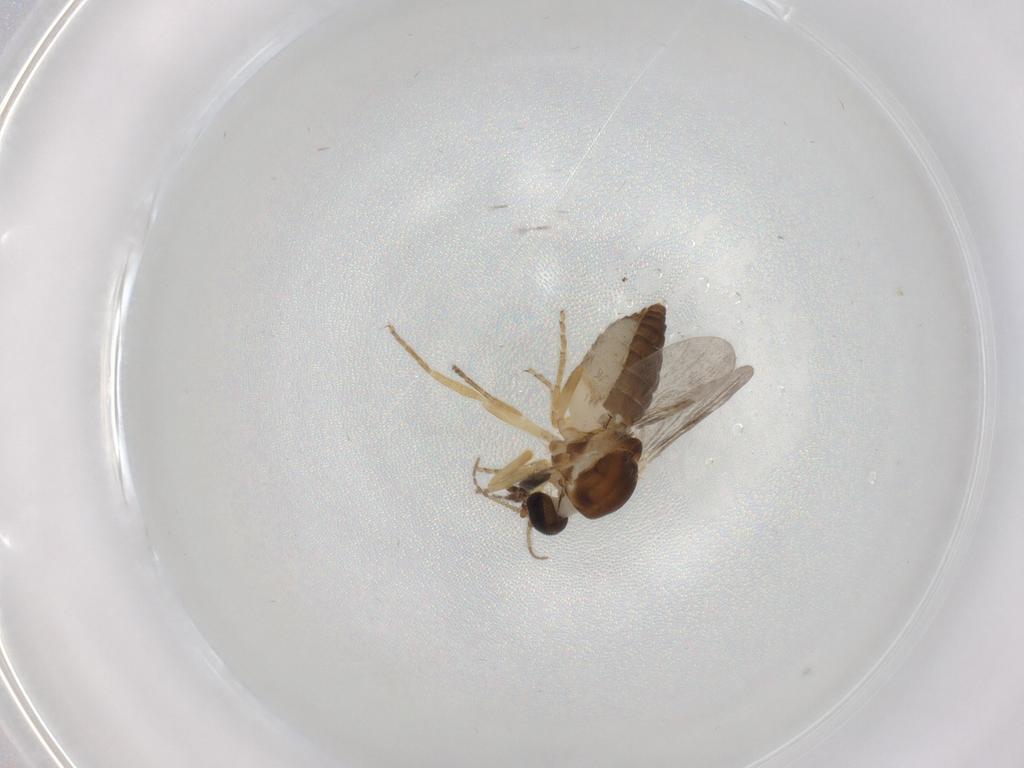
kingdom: Animalia
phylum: Arthropoda
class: Insecta
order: Diptera
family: Ceratopogonidae
